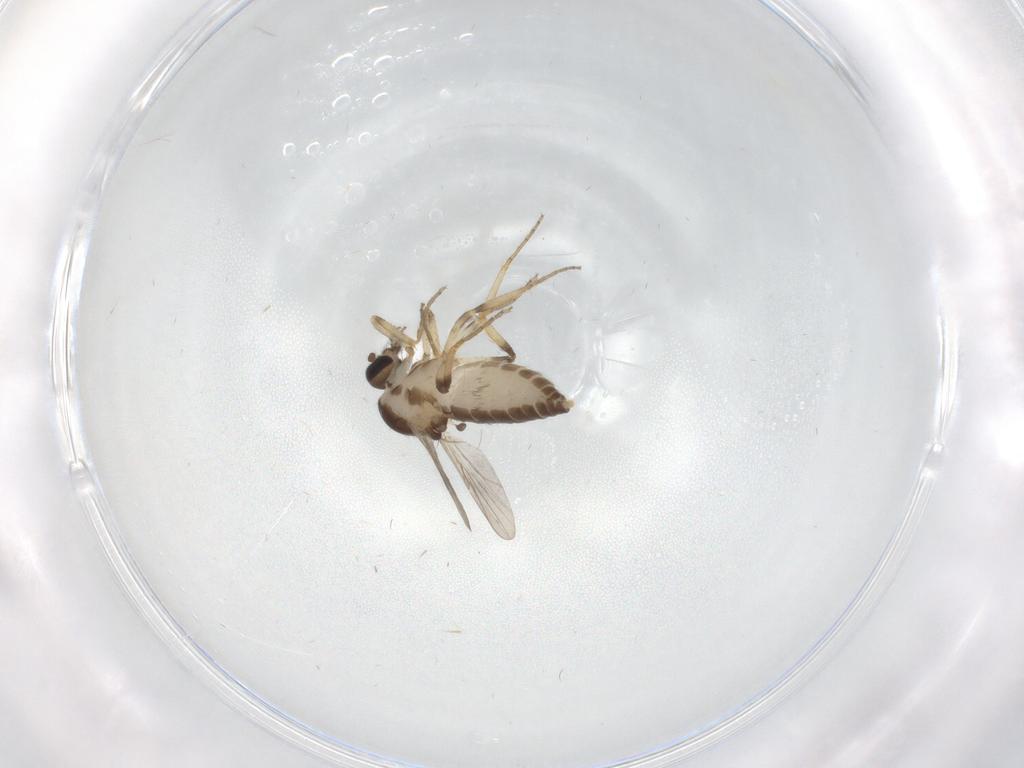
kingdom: Animalia
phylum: Arthropoda
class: Insecta
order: Diptera
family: Ceratopogonidae
